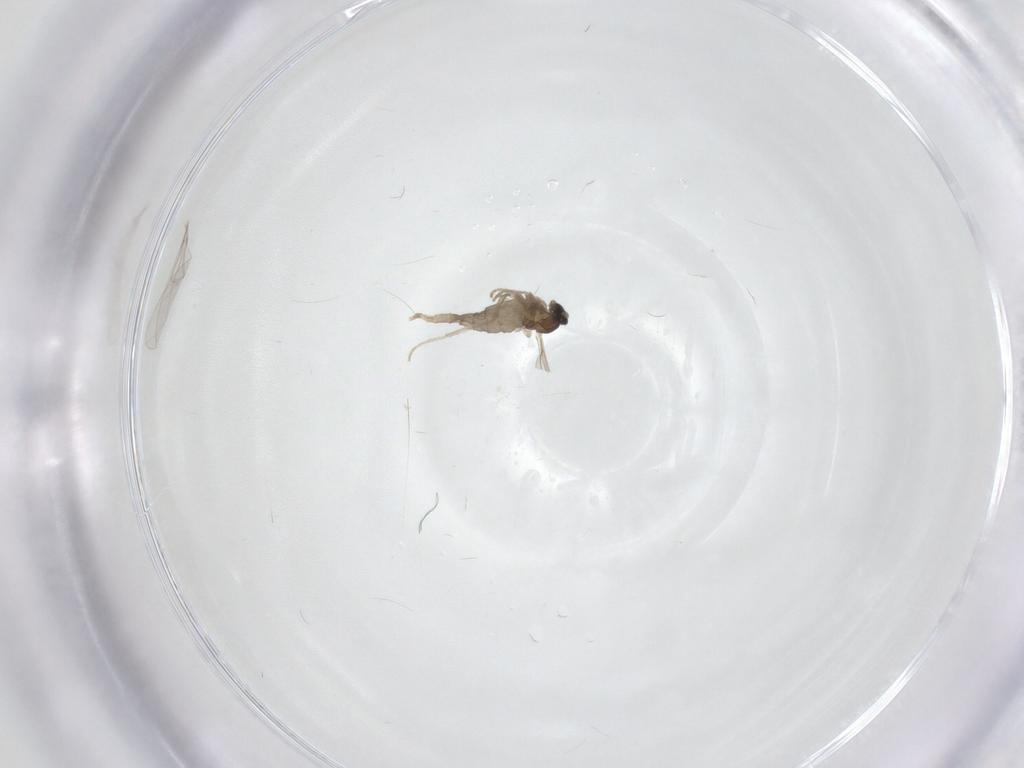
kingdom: Animalia
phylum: Arthropoda
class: Insecta
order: Diptera
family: Cecidomyiidae
